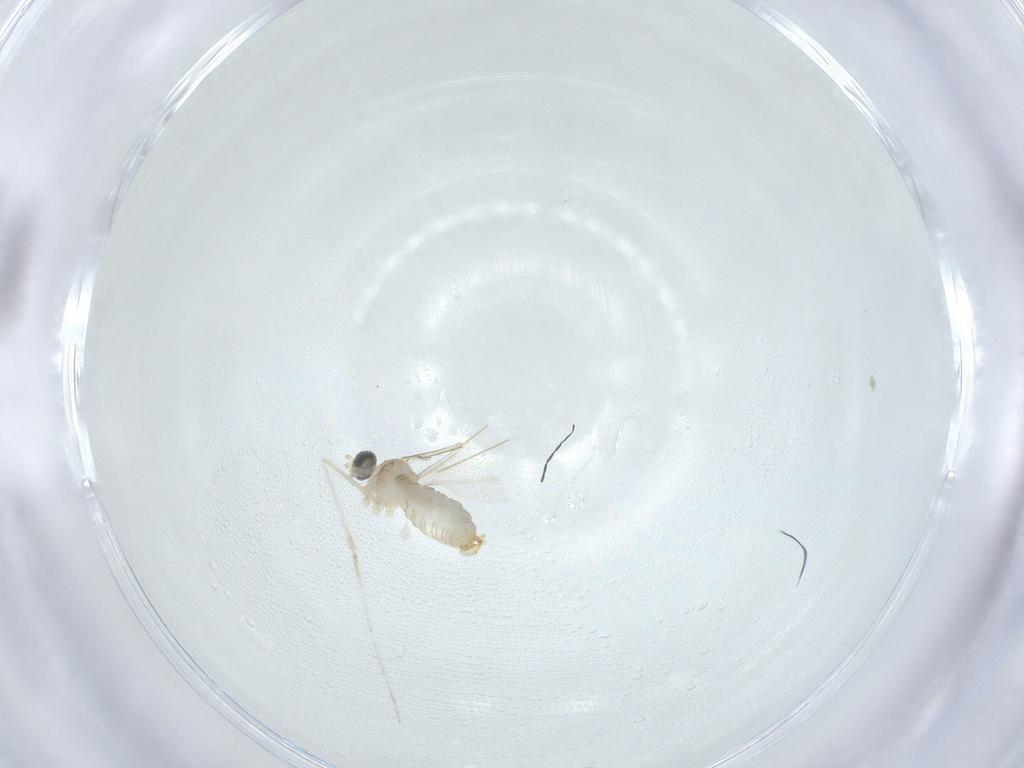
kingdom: Animalia
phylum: Arthropoda
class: Insecta
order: Diptera
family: Cecidomyiidae
